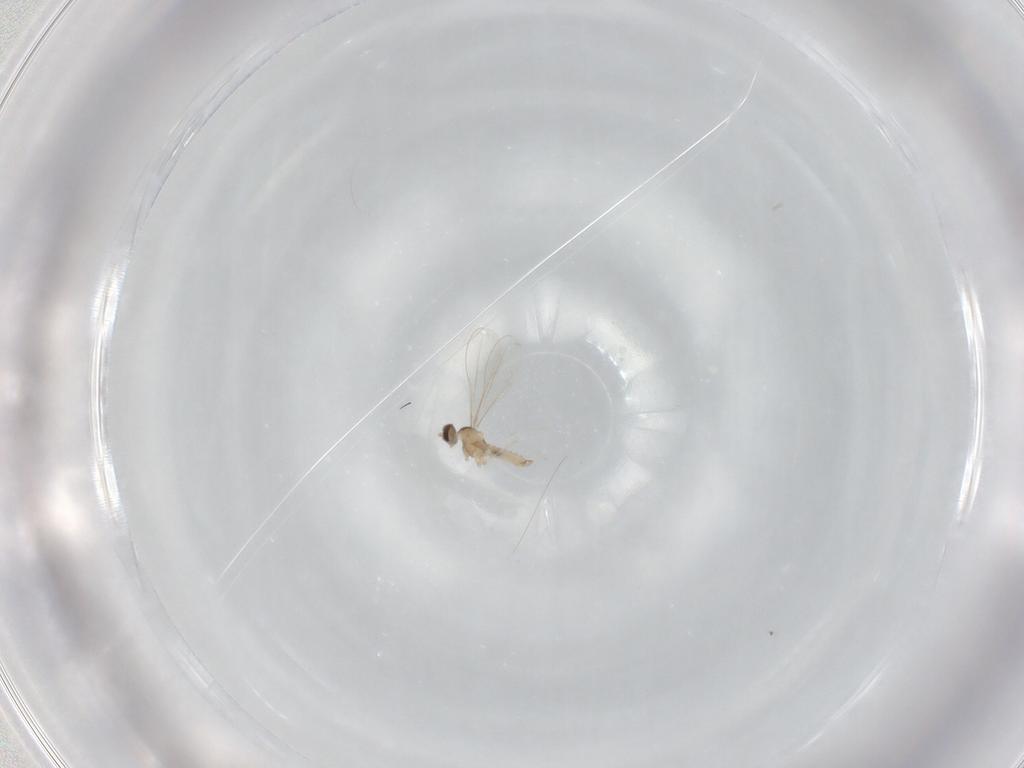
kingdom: Animalia
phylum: Arthropoda
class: Insecta
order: Diptera
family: Cecidomyiidae
